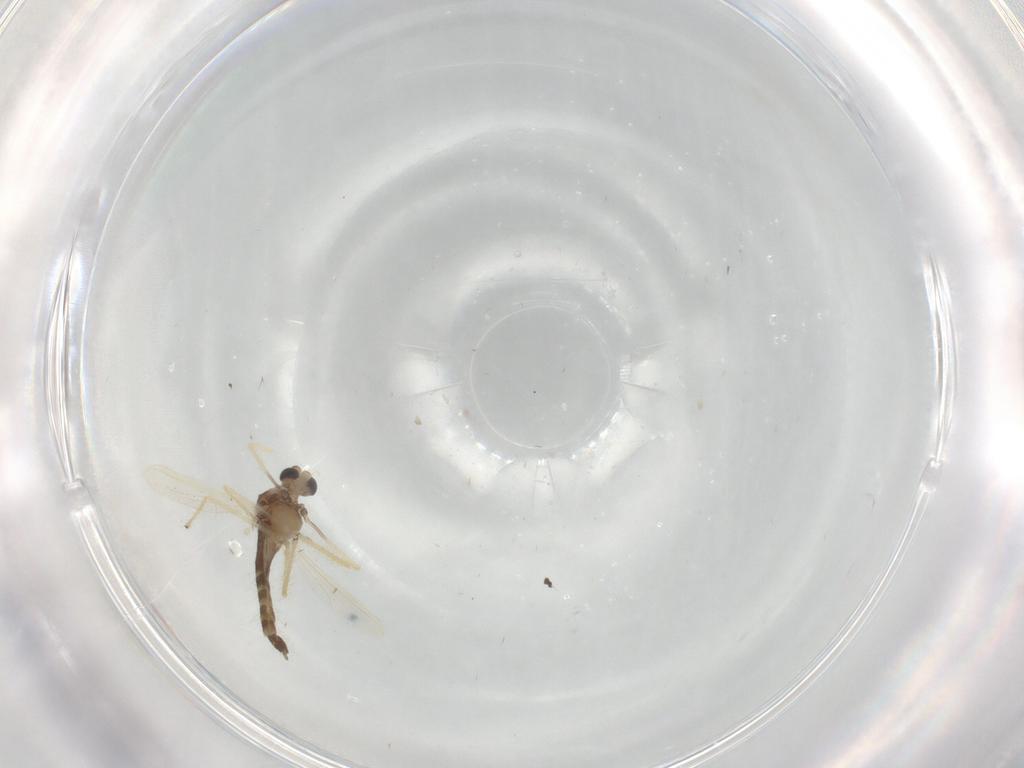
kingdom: Animalia
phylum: Arthropoda
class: Insecta
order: Diptera
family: Chironomidae
